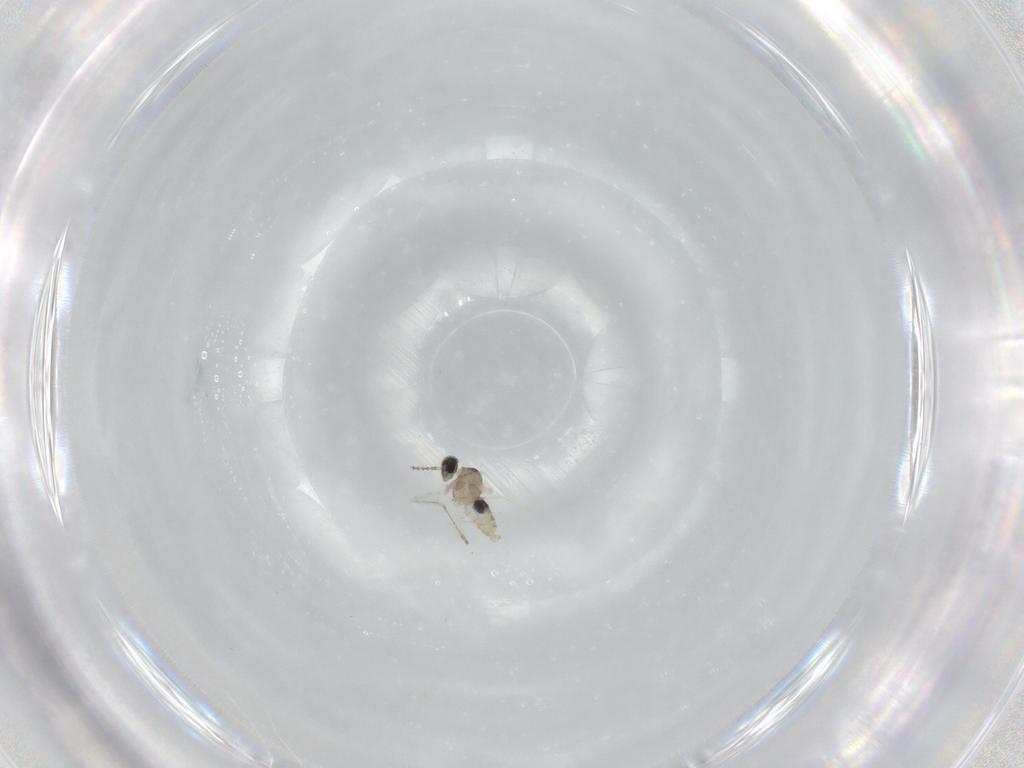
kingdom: Animalia
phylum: Arthropoda
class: Insecta
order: Diptera
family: Cecidomyiidae
